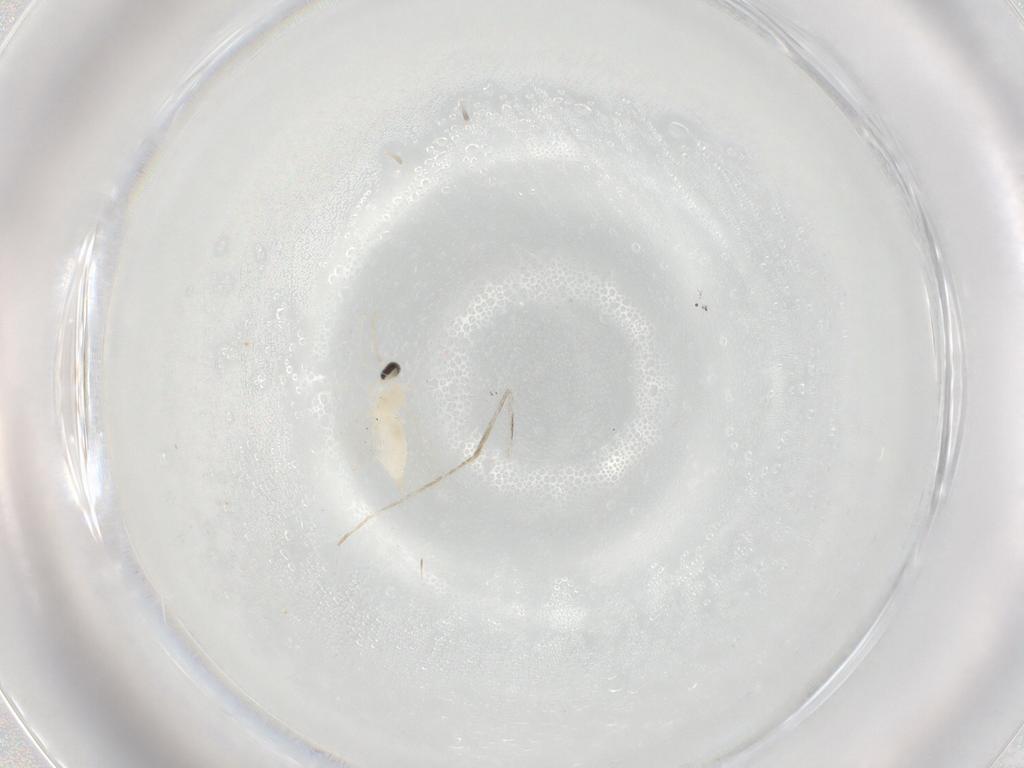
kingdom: Animalia
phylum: Arthropoda
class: Insecta
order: Diptera
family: Cecidomyiidae
